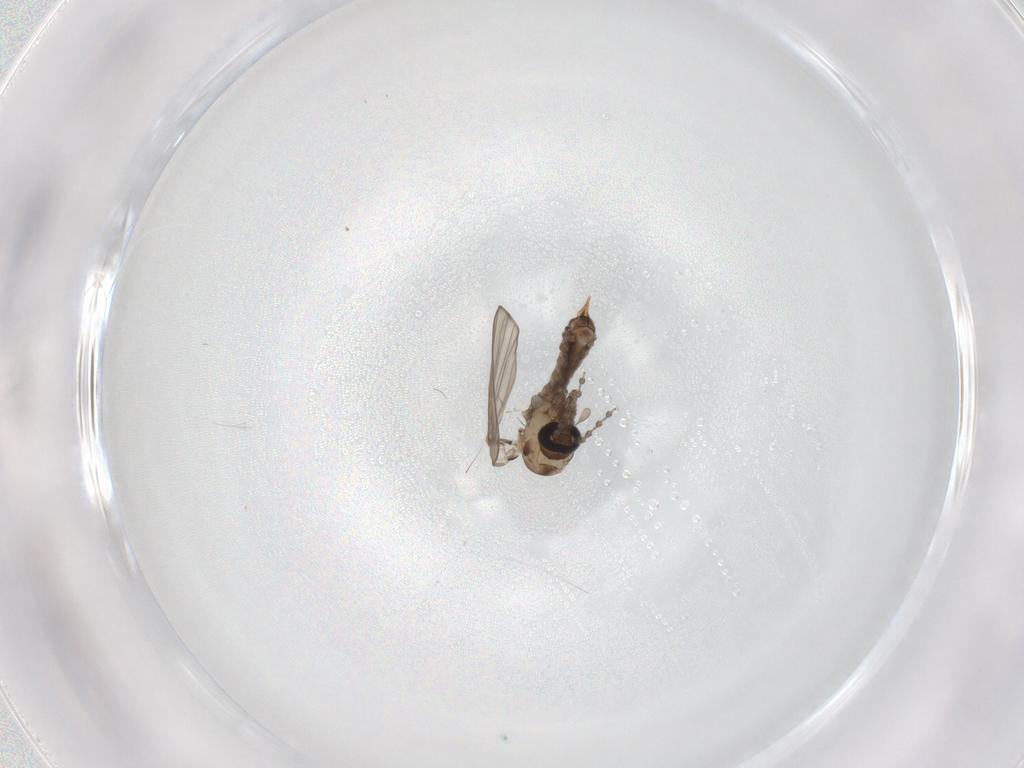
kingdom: Animalia
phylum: Arthropoda
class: Insecta
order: Diptera
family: Psychodidae
